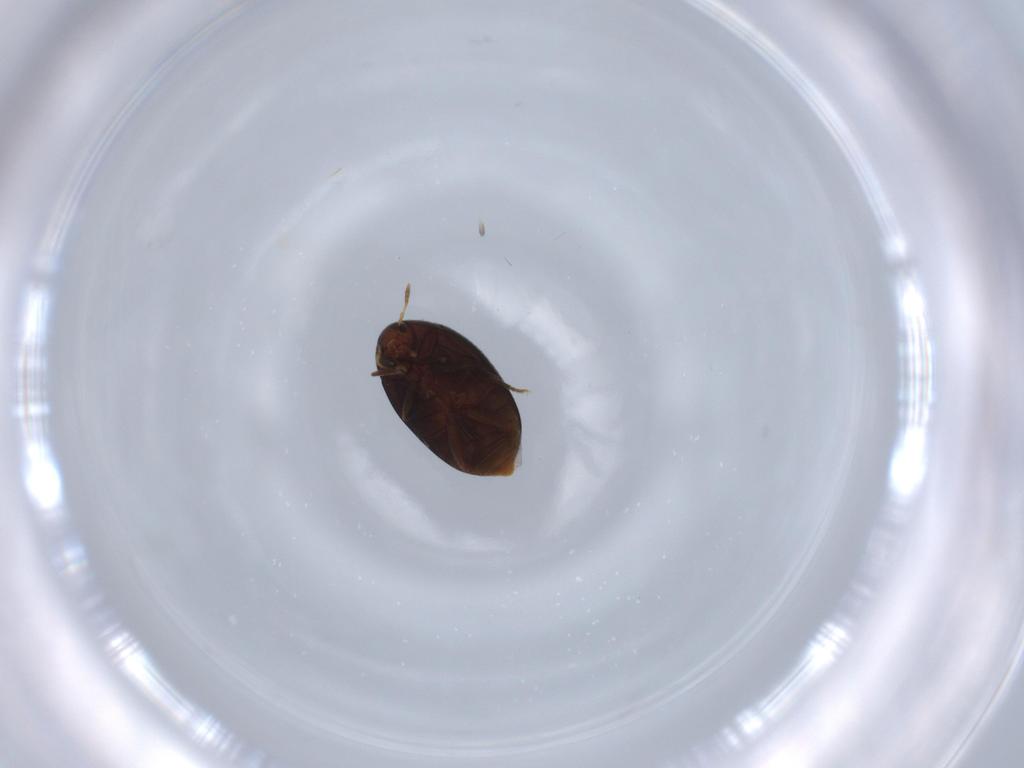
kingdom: Animalia
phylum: Arthropoda
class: Insecta
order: Coleoptera
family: Melandryidae
